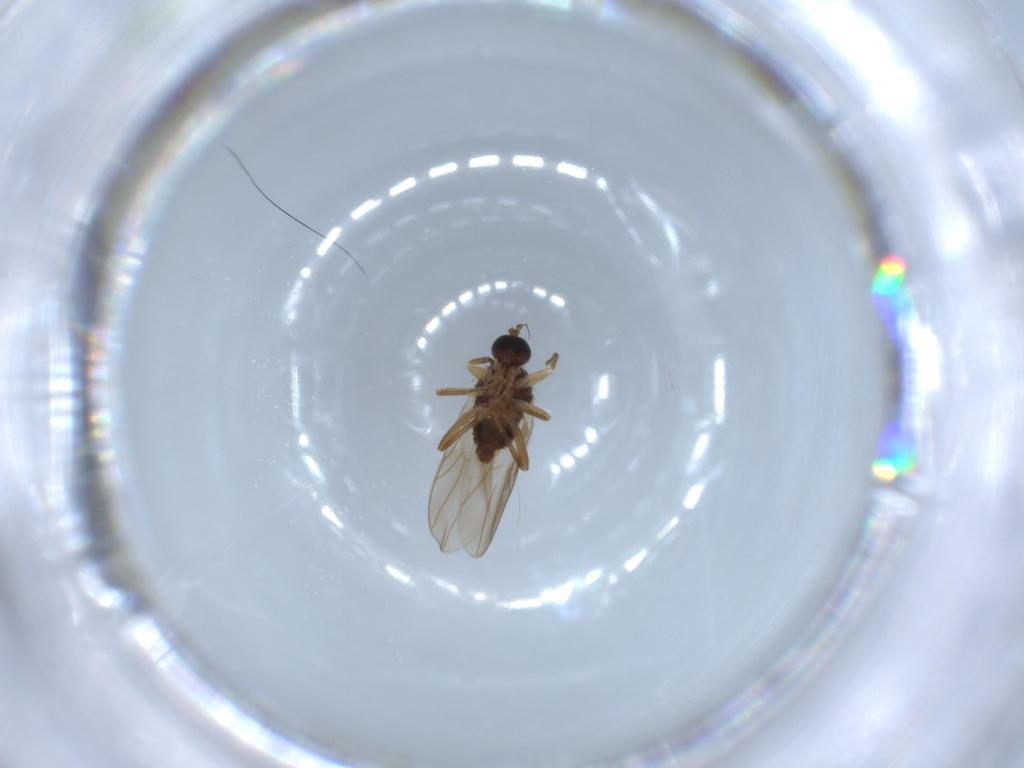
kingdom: Animalia
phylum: Arthropoda
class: Insecta
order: Diptera
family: Hybotidae
